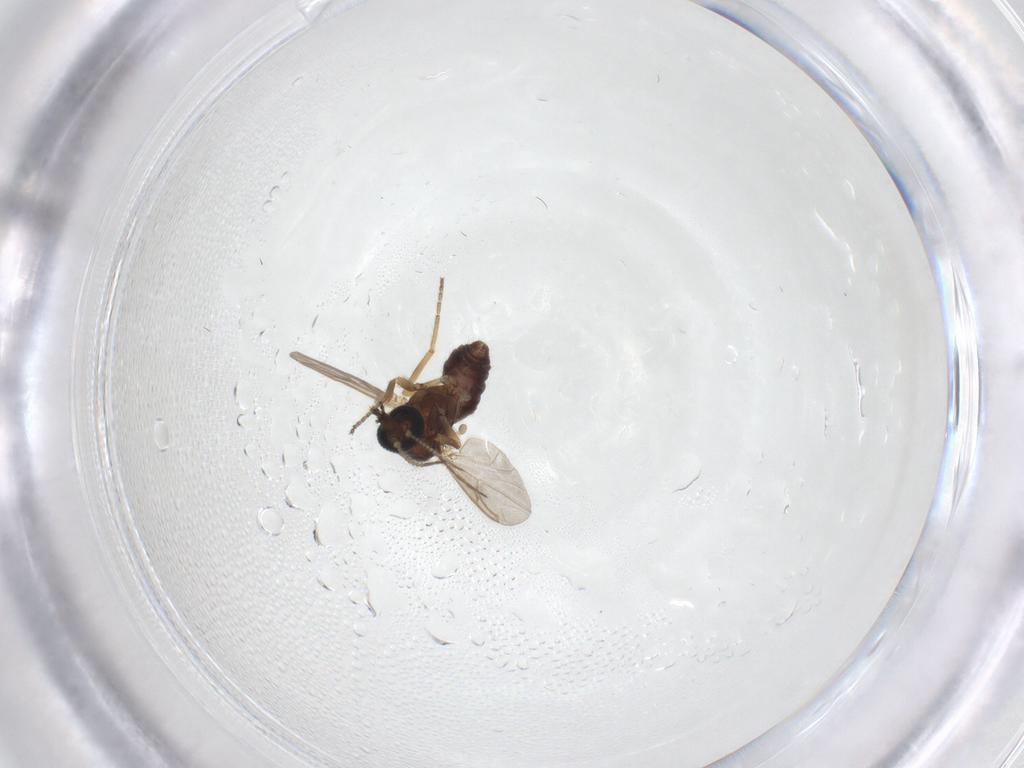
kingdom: Animalia
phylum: Arthropoda
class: Insecta
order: Diptera
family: Ceratopogonidae
